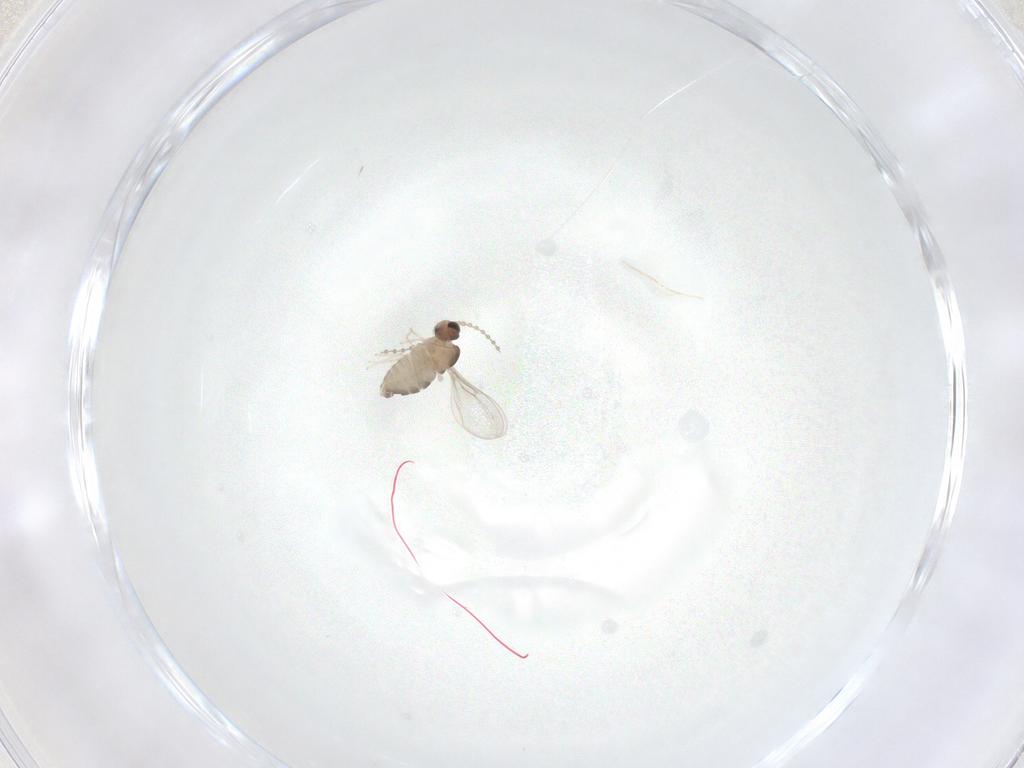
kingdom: Animalia
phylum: Arthropoda
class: Insecta
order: Diptera
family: Cecidomyiidae
